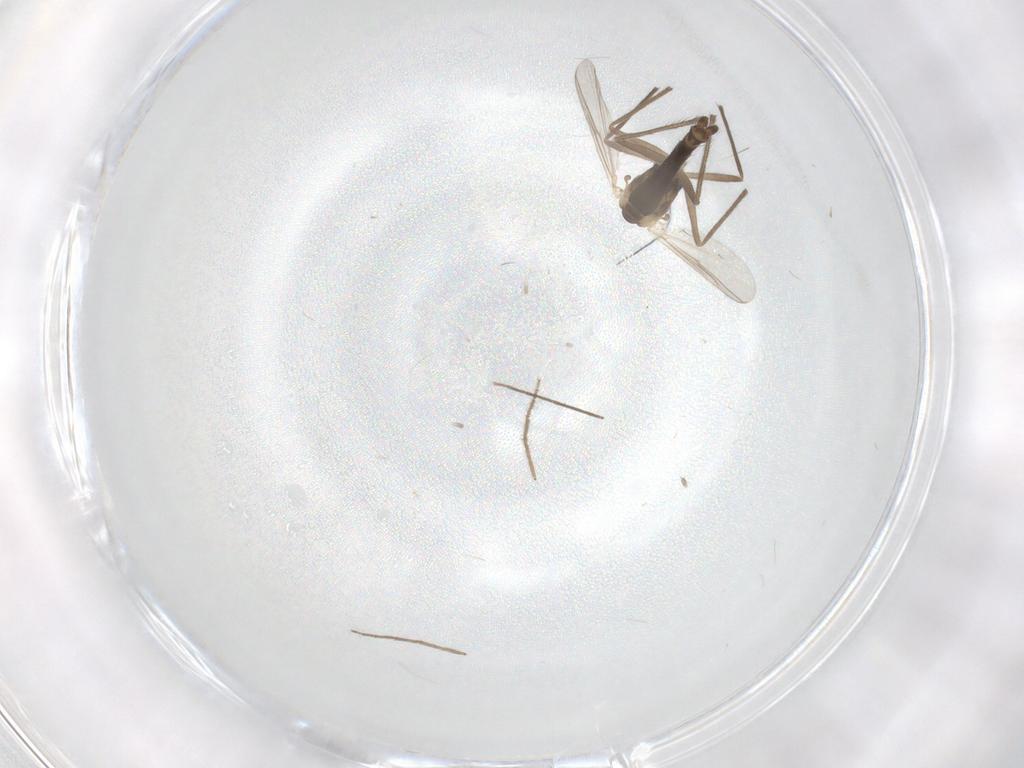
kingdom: Animalia
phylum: Arthropoda
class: Insecta
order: Diptera
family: Chironomidae
